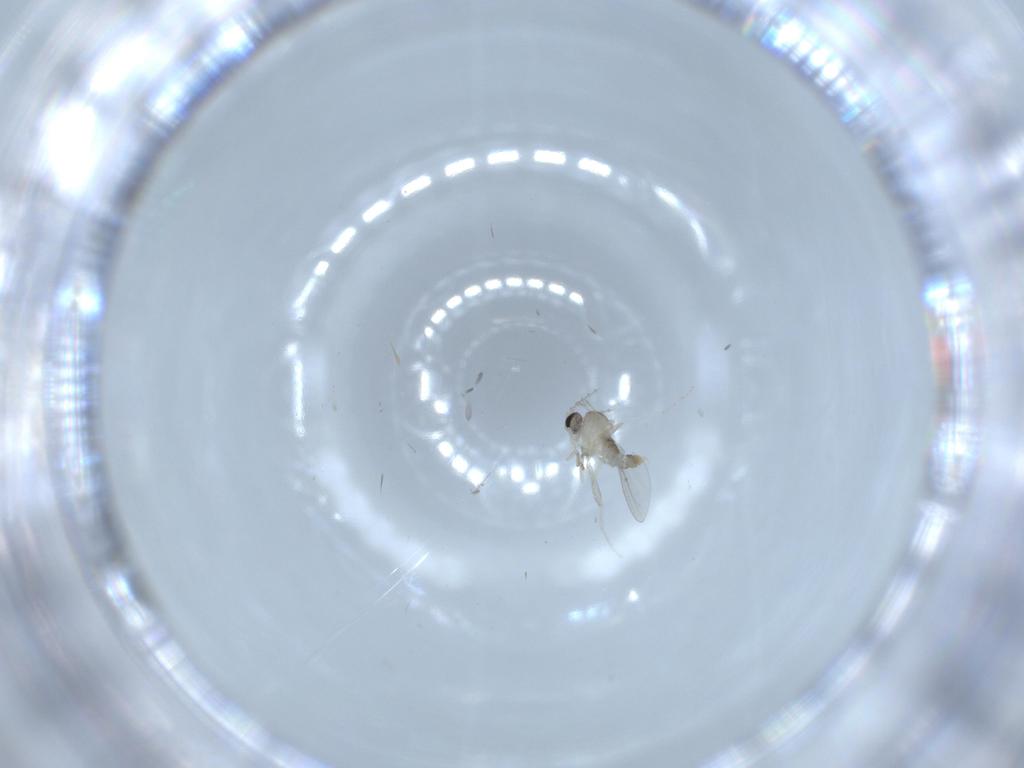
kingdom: Animalia
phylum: Arthropoda
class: Insecta
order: Diptera
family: Cecidomyiidae
